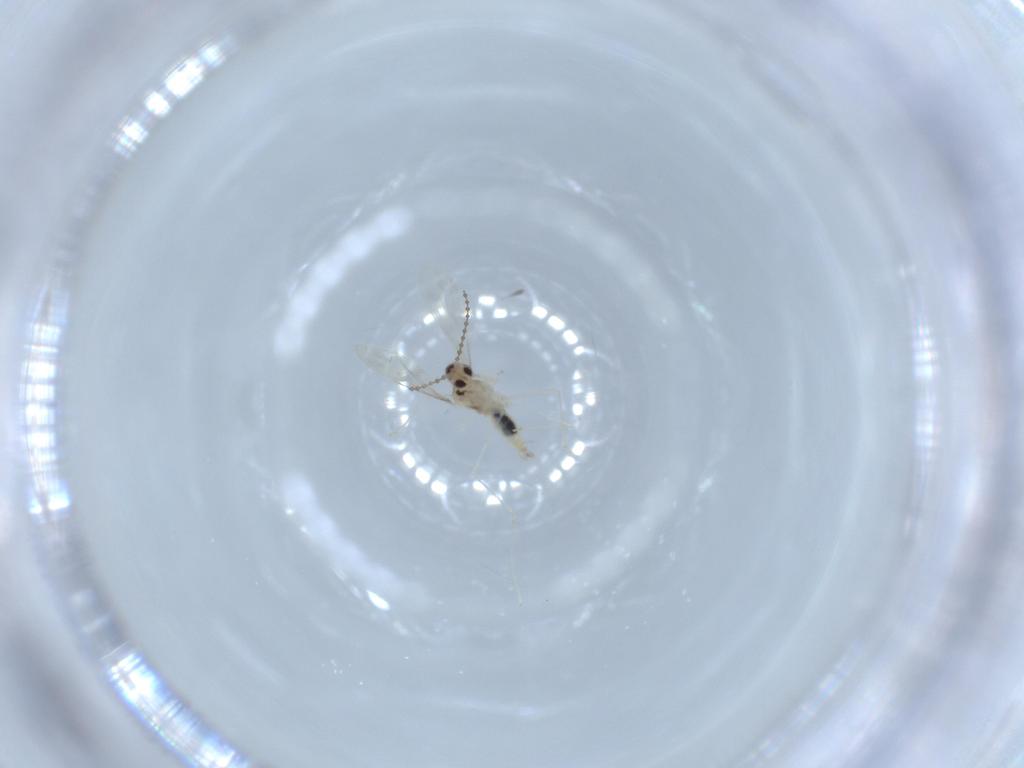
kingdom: Animalia
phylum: Arthropoda
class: Insecta
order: Diptera
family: Cecidomyiidae
